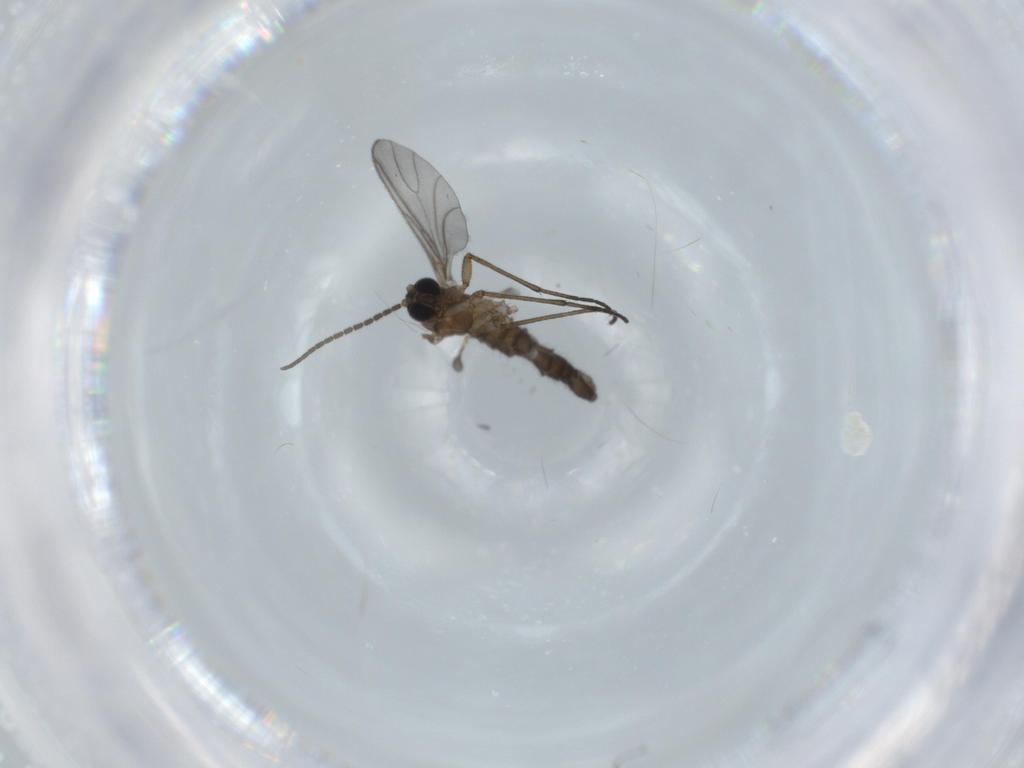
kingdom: Animalia
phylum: Arthropoda
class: Insecta
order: Diptera
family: Sciaridae
